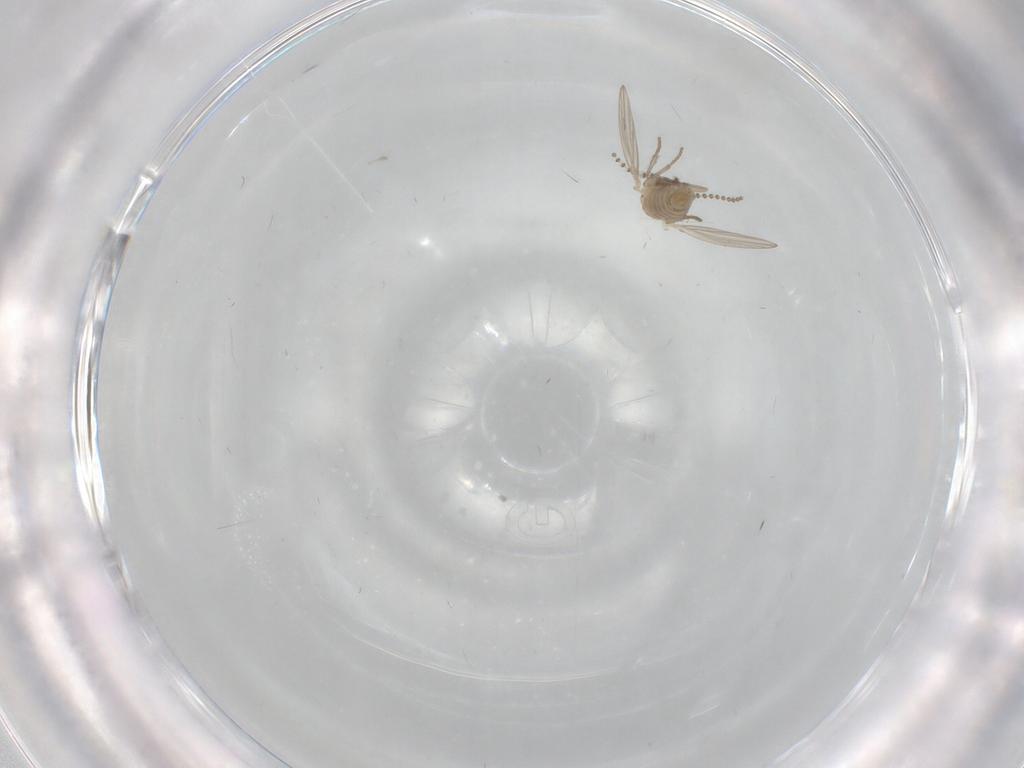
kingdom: Animalia
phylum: Arthropoda
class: Insecta
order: Diptera
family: Psychodidae
